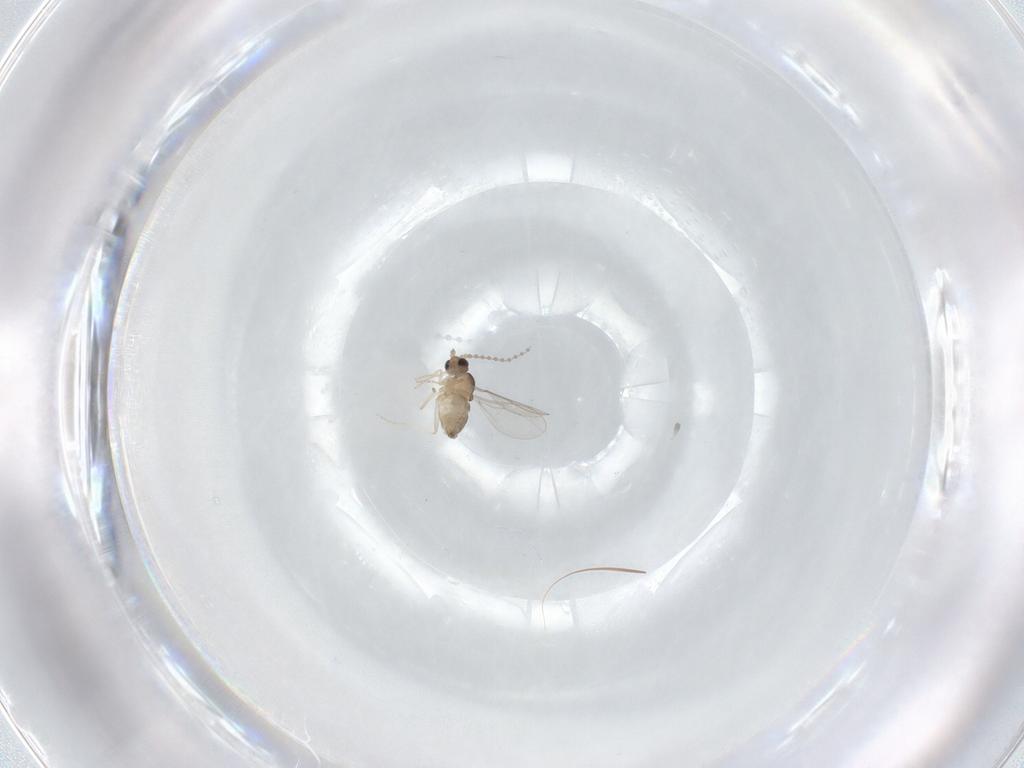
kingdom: Animalia
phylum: Arthropoda
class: Insecta
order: Diptera
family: Cecidomyiidae
